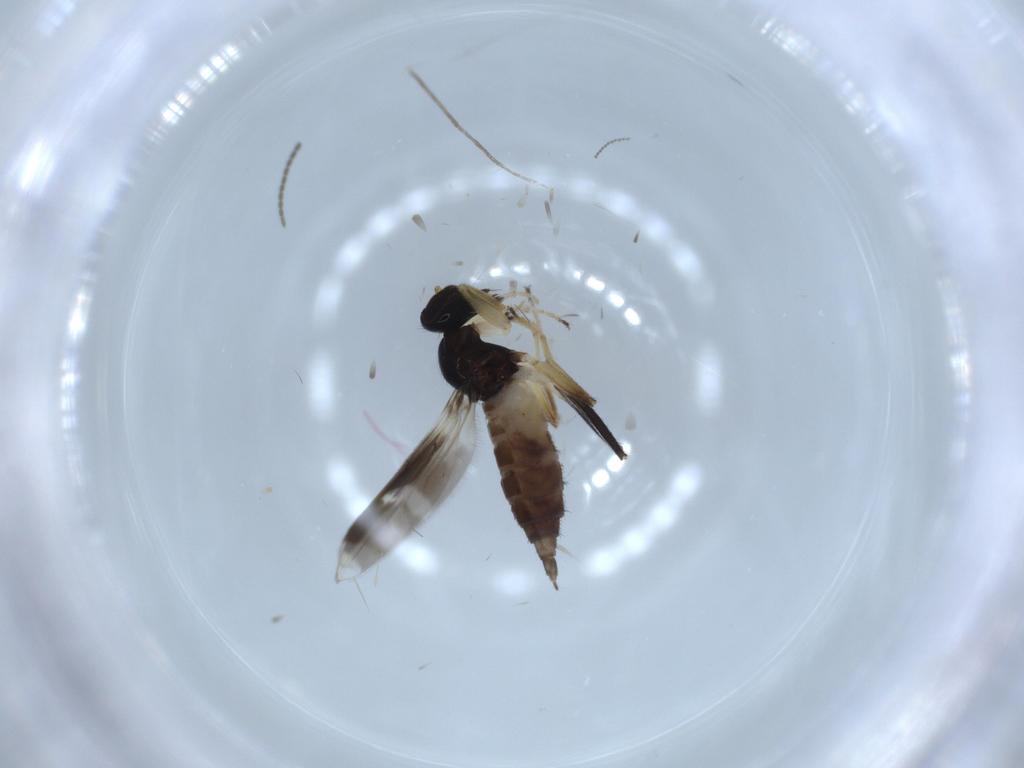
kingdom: Animalia
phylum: Arthropoda
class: Insecta
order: Diptera
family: Hybotidae
